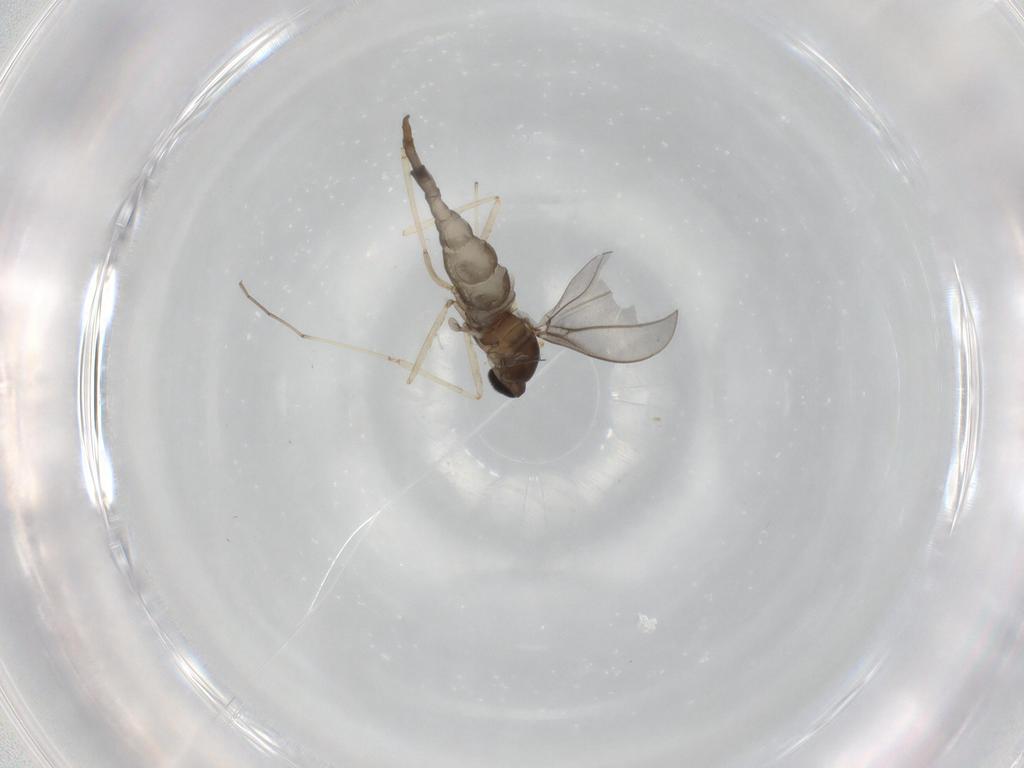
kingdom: Animalia
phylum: Arthropoda
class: Insecta
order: Diptera
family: Cecidomyiidae
